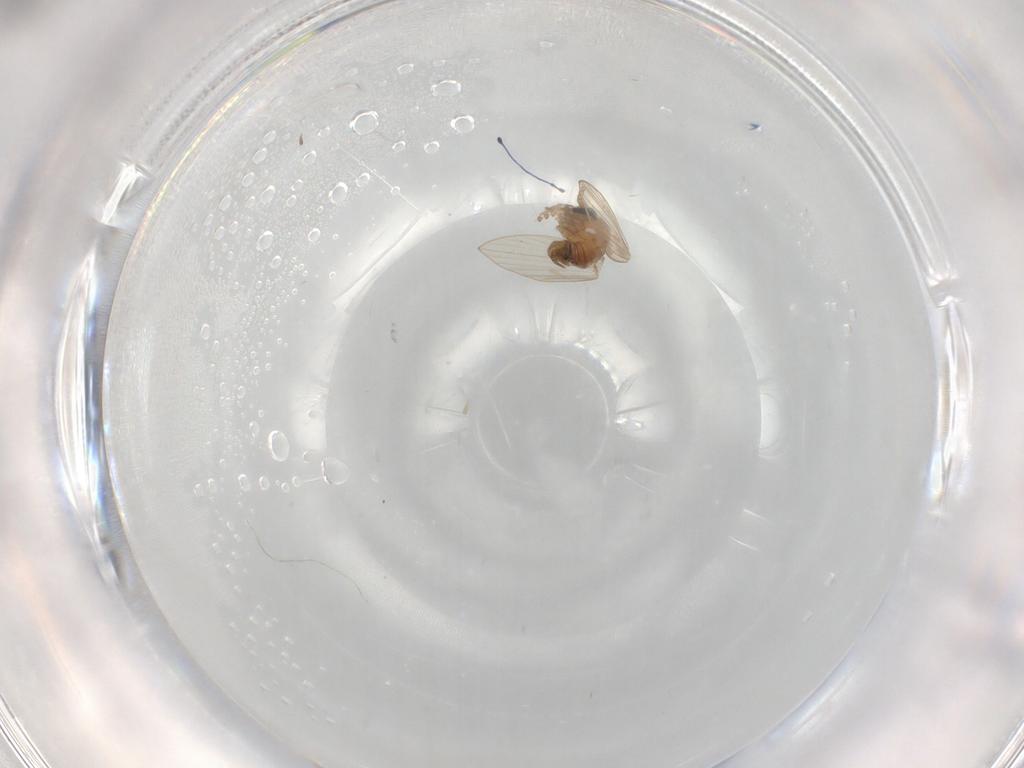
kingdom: Animalia
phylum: Arthropoda
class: Insecta
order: Diptera
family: Psychodidae
